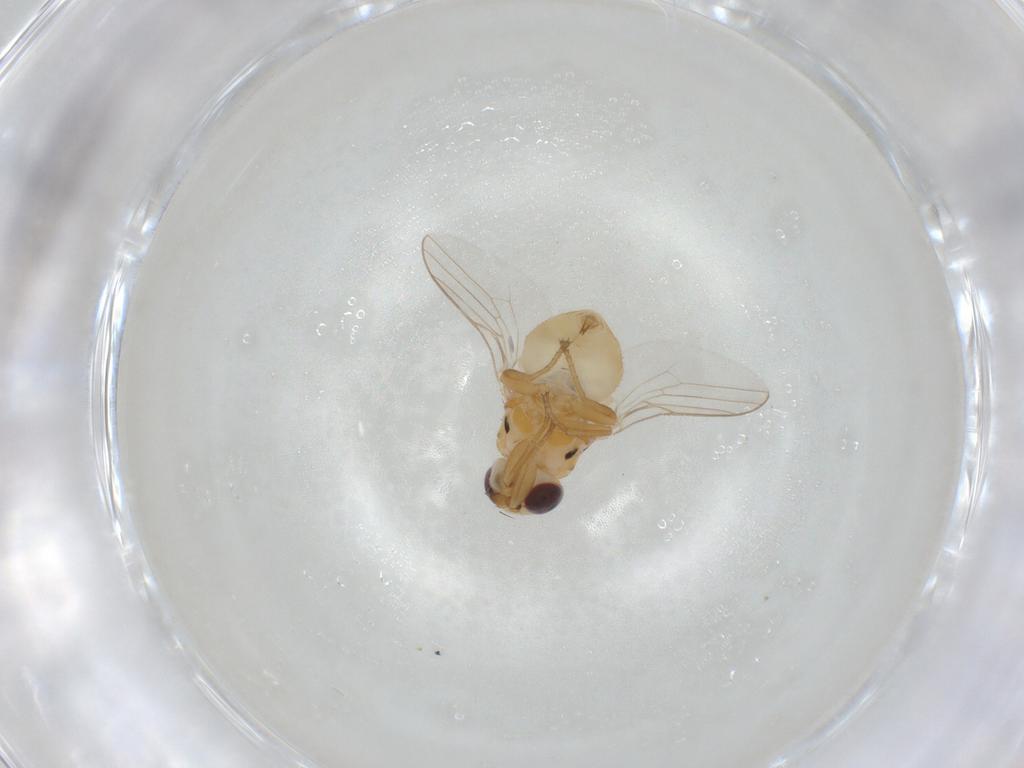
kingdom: Animalia
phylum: Arthropoda
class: Insecta
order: Diptera
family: Chloropidae
